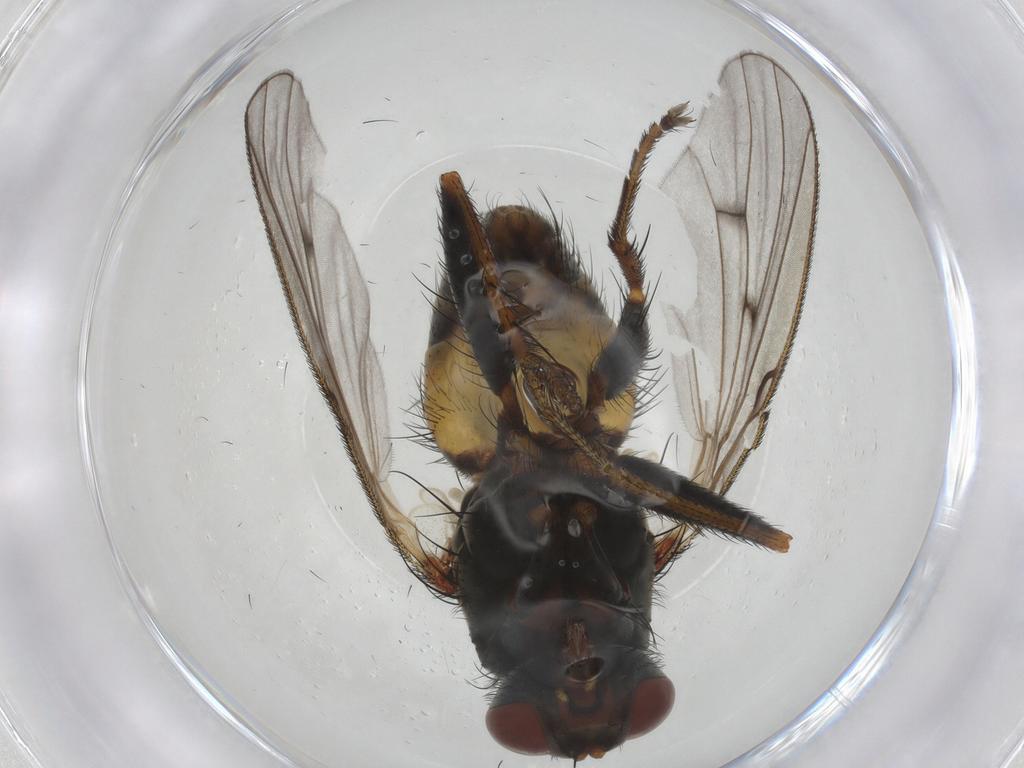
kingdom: Animalia
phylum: Arthropoda
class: Insecta
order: Diptera
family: Muscidae
